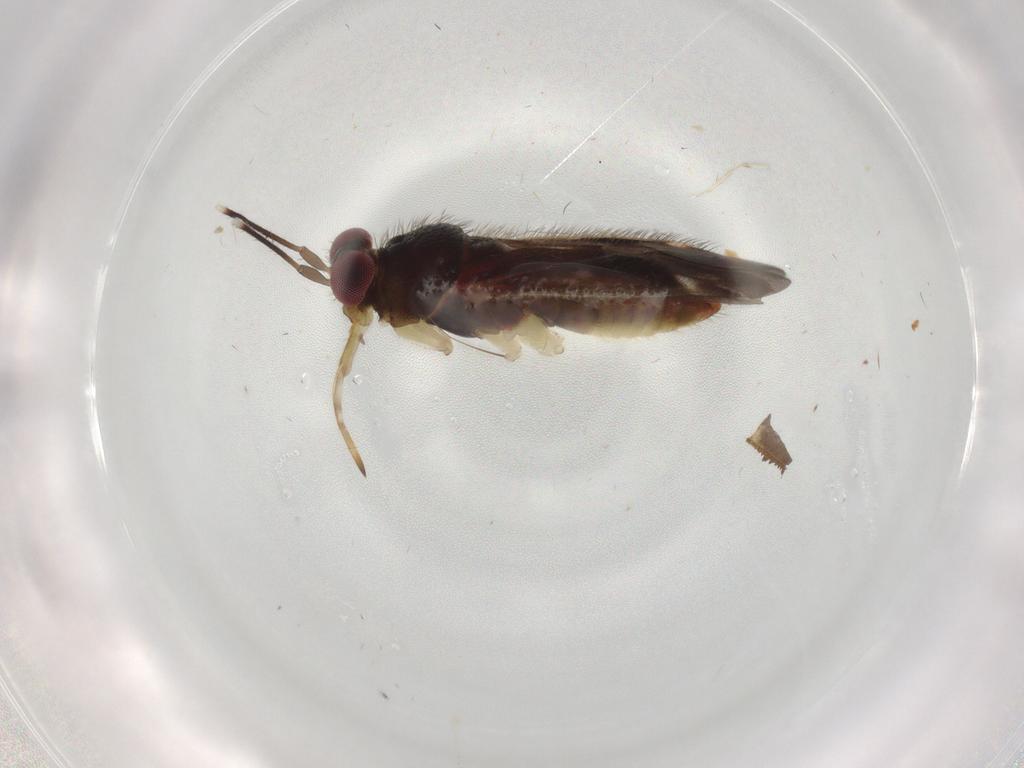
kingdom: Animalia
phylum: Arthropoda
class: Insecta
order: Hemiptera
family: Miridae
